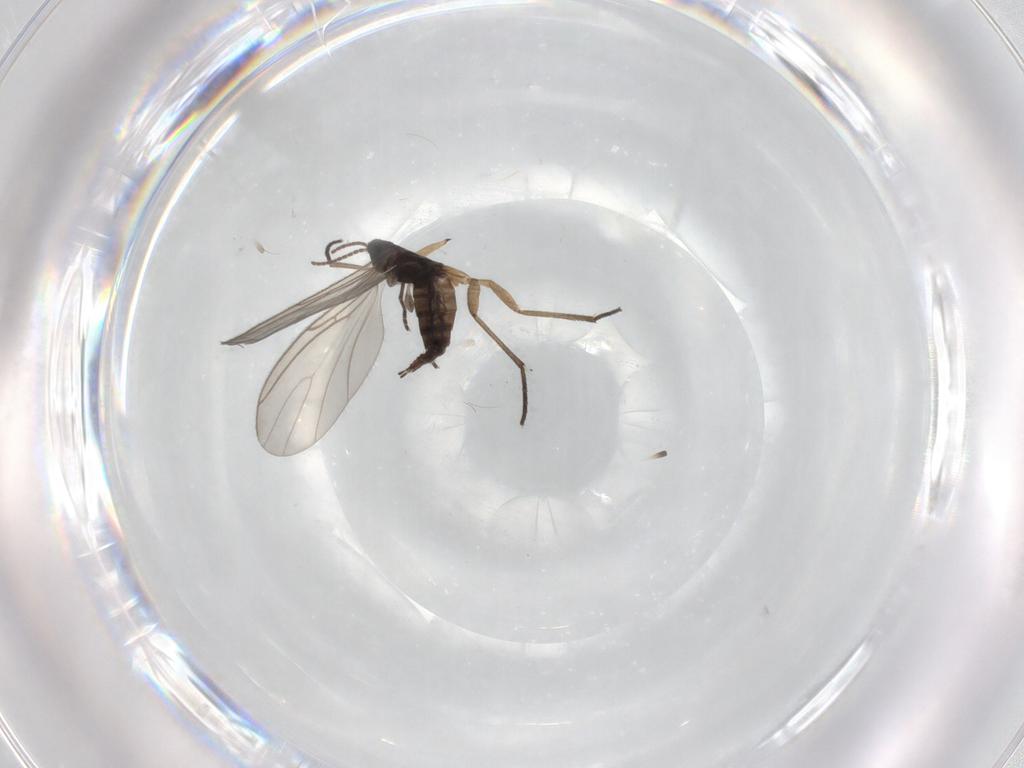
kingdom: Animalia
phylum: Arthropoda
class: Insecta
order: Diptera
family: Sciaridae
